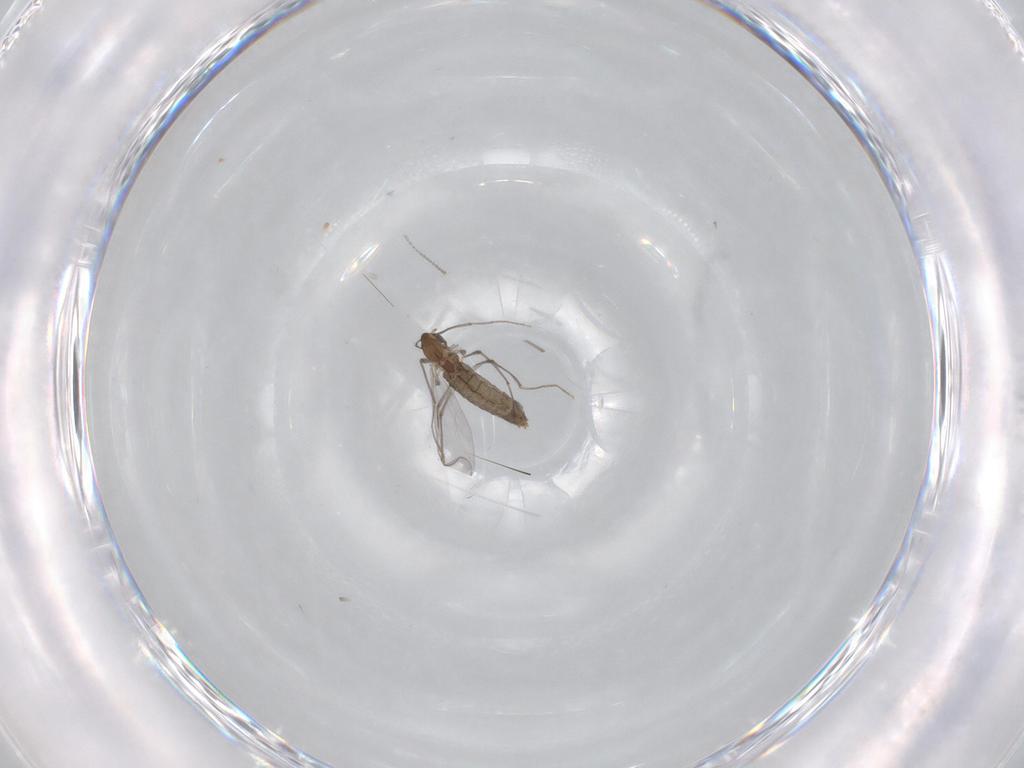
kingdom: Animalia
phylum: Arthropoda
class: Insecta
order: Diptera
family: Chironomidae
